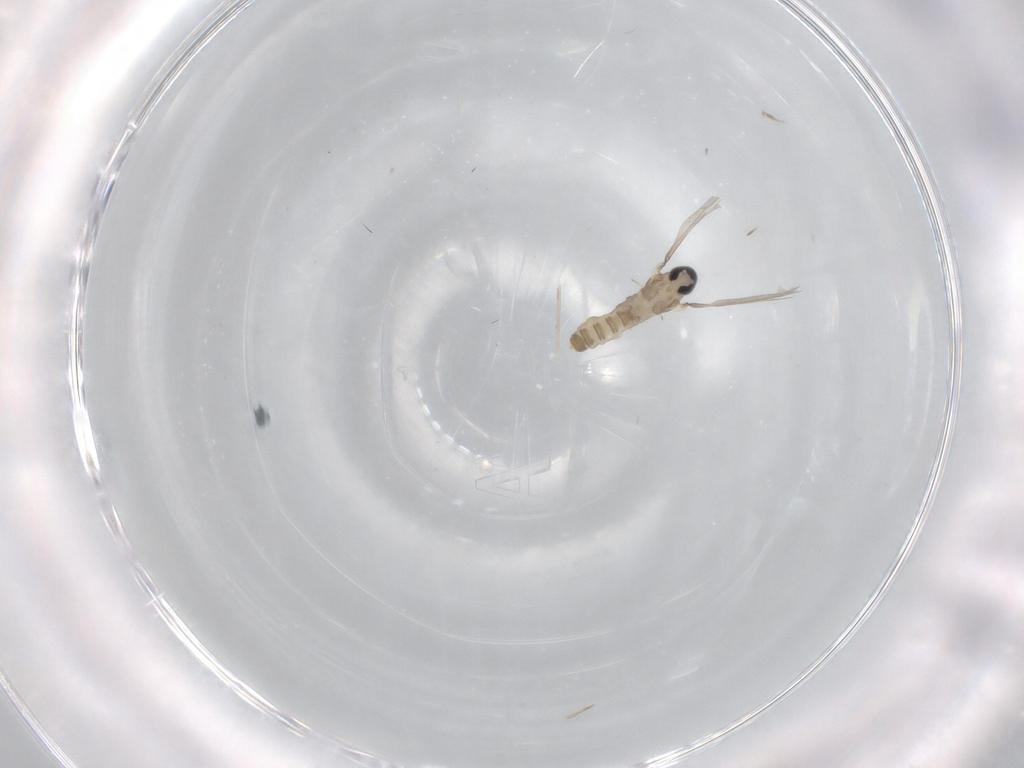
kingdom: Animalia
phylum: Arthropoda
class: Insecta
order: Diptera
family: Cecidomyiidae
